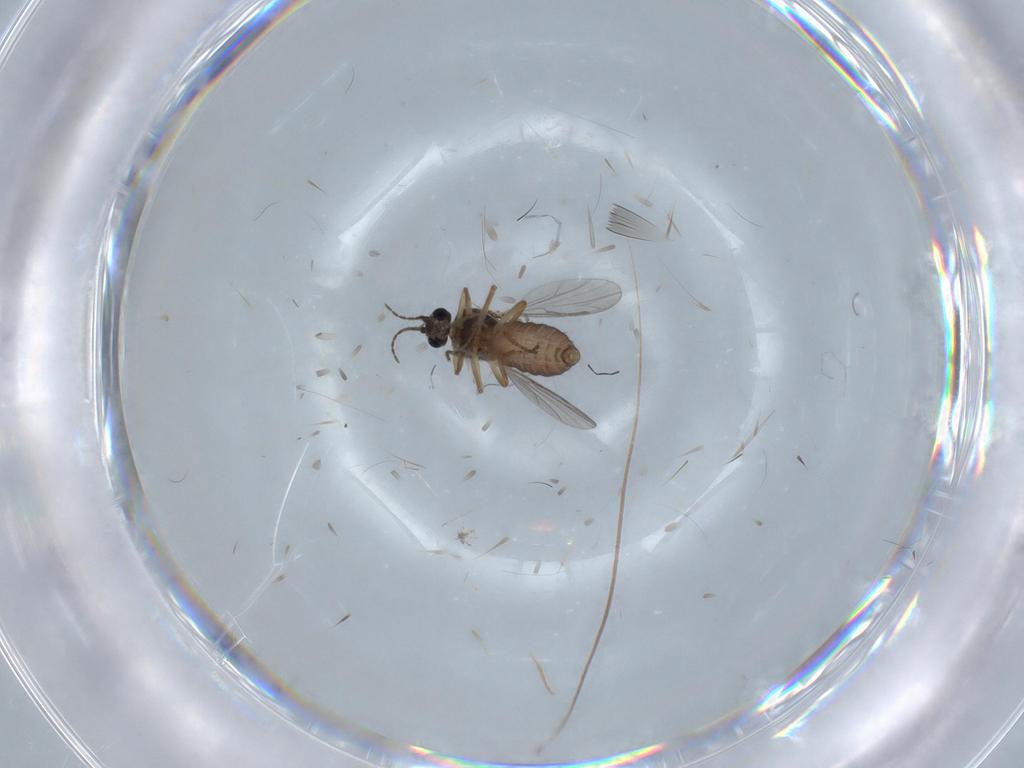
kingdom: Animalia
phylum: Arthropoda
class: Insecta
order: Diptera
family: Ceratopogonidae
